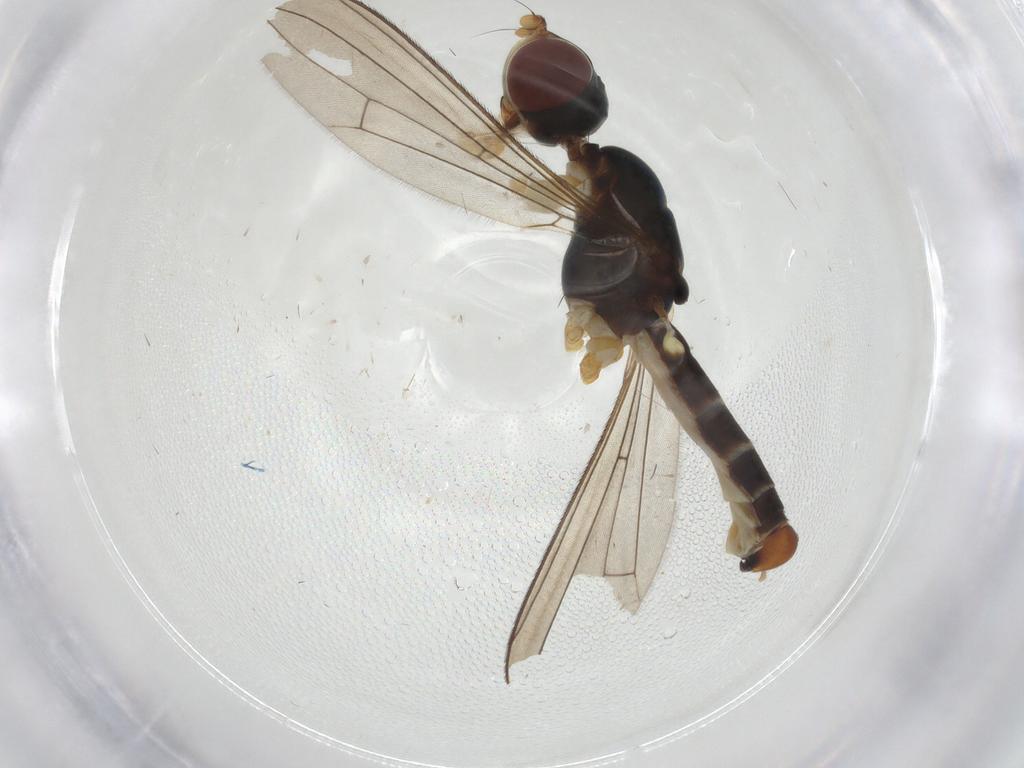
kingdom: Animalia
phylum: Arthropoda
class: Insecta
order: Diptera
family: Micropezidae
